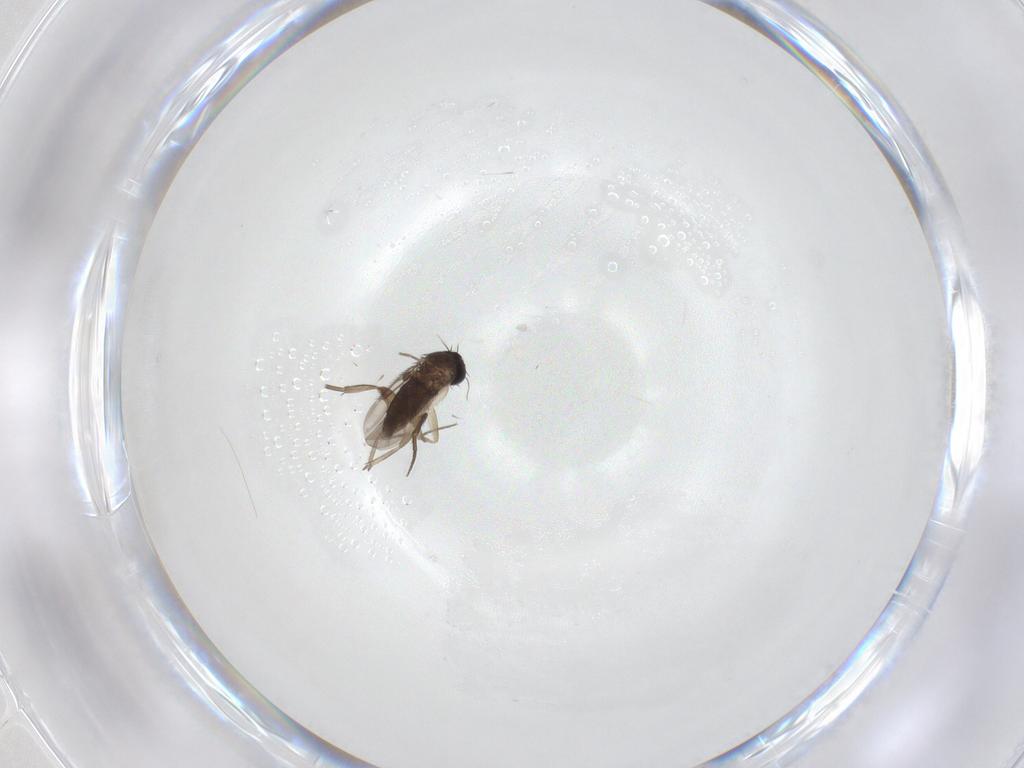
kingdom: Animalia
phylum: Arthropoda
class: Insecta
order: Diptera
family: Phoridae
